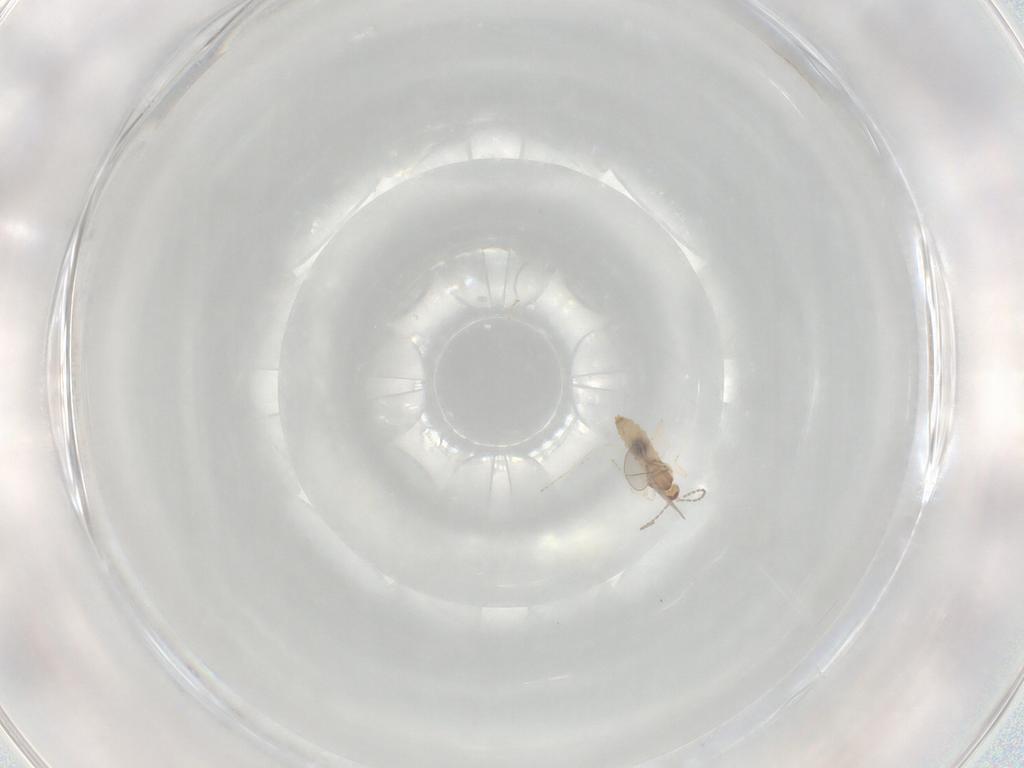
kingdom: Animalia
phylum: Arthropoda
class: Insecta
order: Diptera
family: Cecidomyiidae
